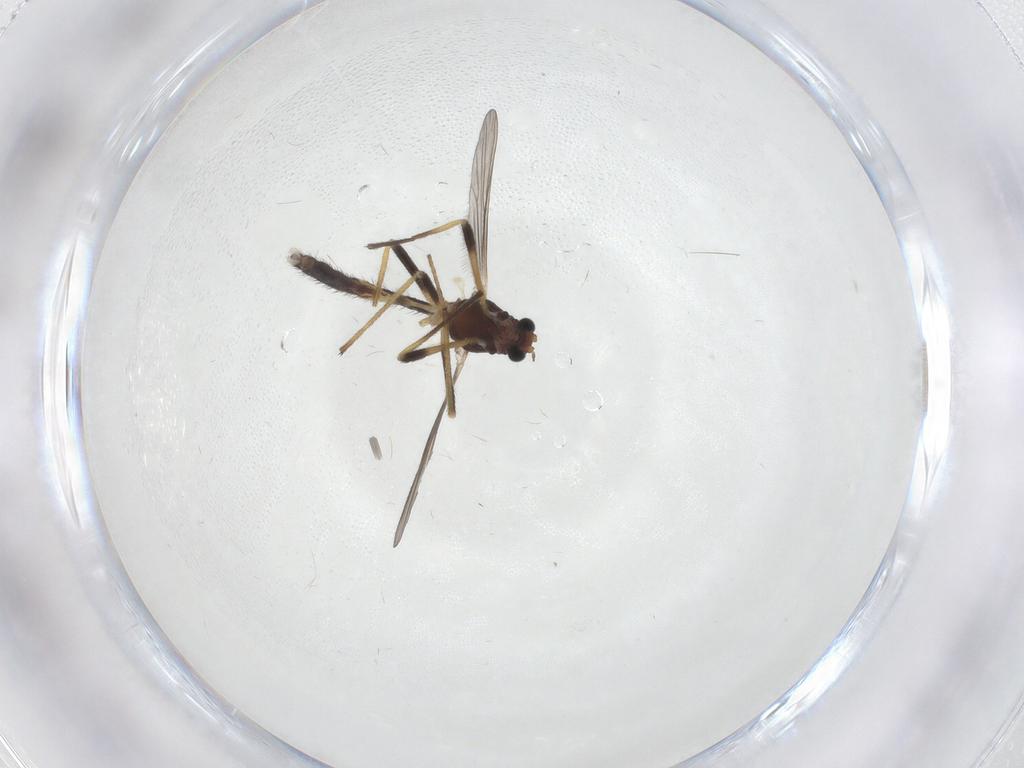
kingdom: Animalia
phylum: Arthropoda
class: Insecta
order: Diptera
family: Chironomidae
